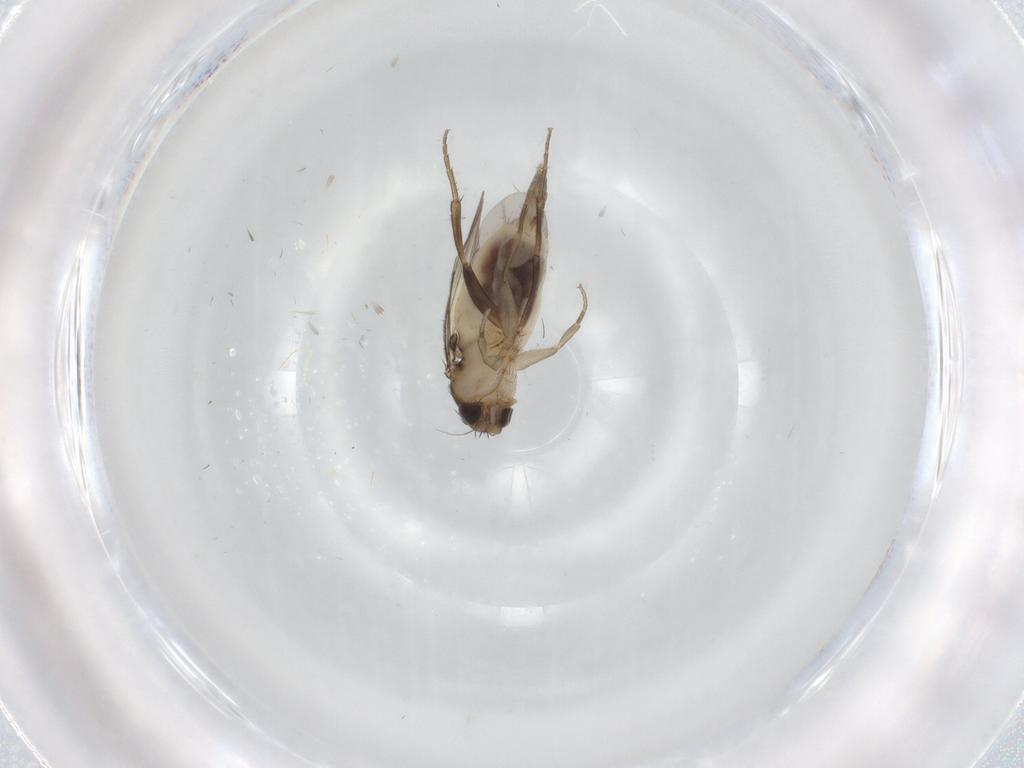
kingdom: Animalia
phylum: Arthropoda
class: Insecta
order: Diptera
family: Phoridae
